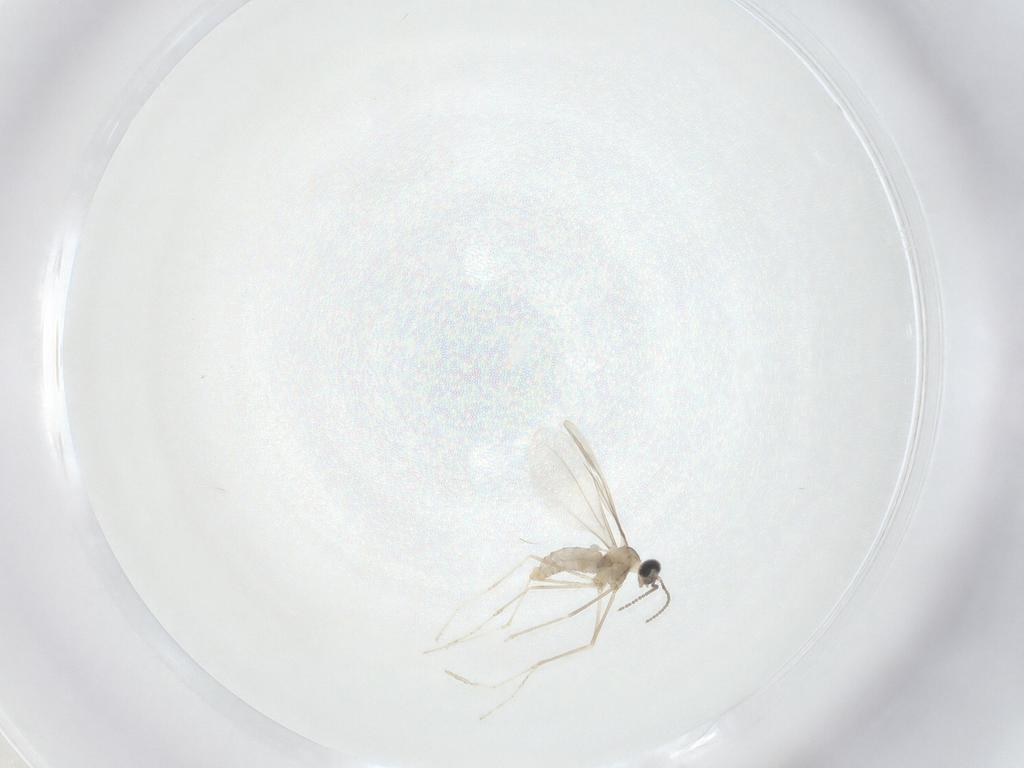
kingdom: Animalia
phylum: Arthropoda
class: Insecta
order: Diptera
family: Cecidomyiidae
